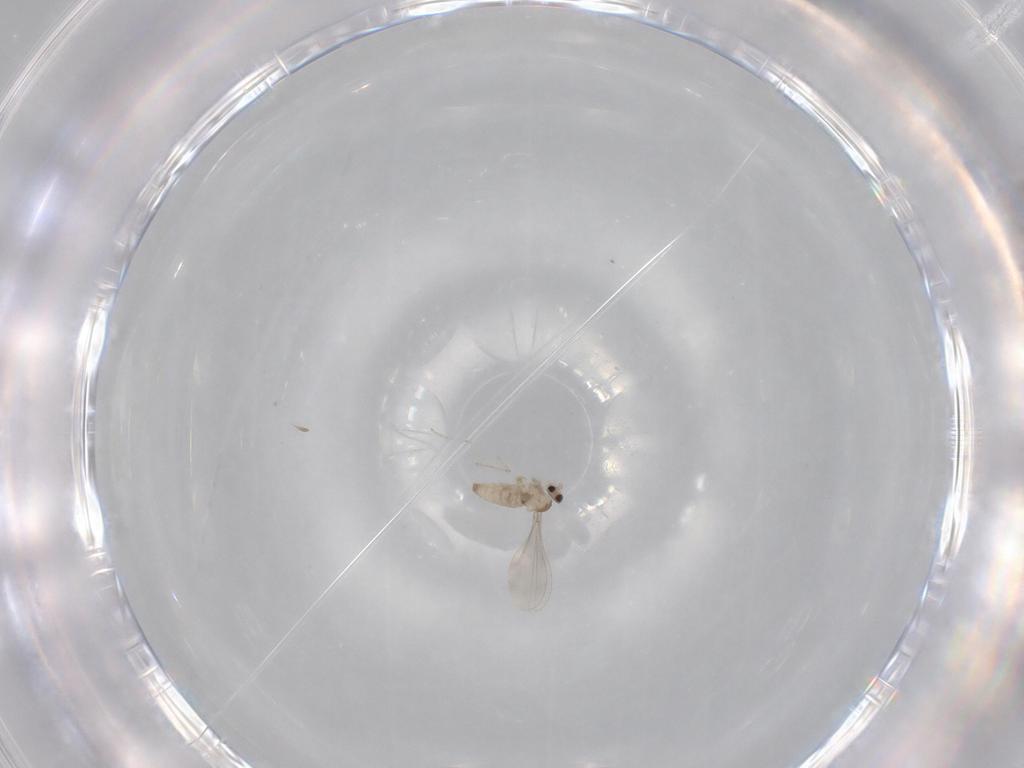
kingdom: Animalia
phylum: Arthropoda
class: Insecta
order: Diptera
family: Cecidomyiidae
